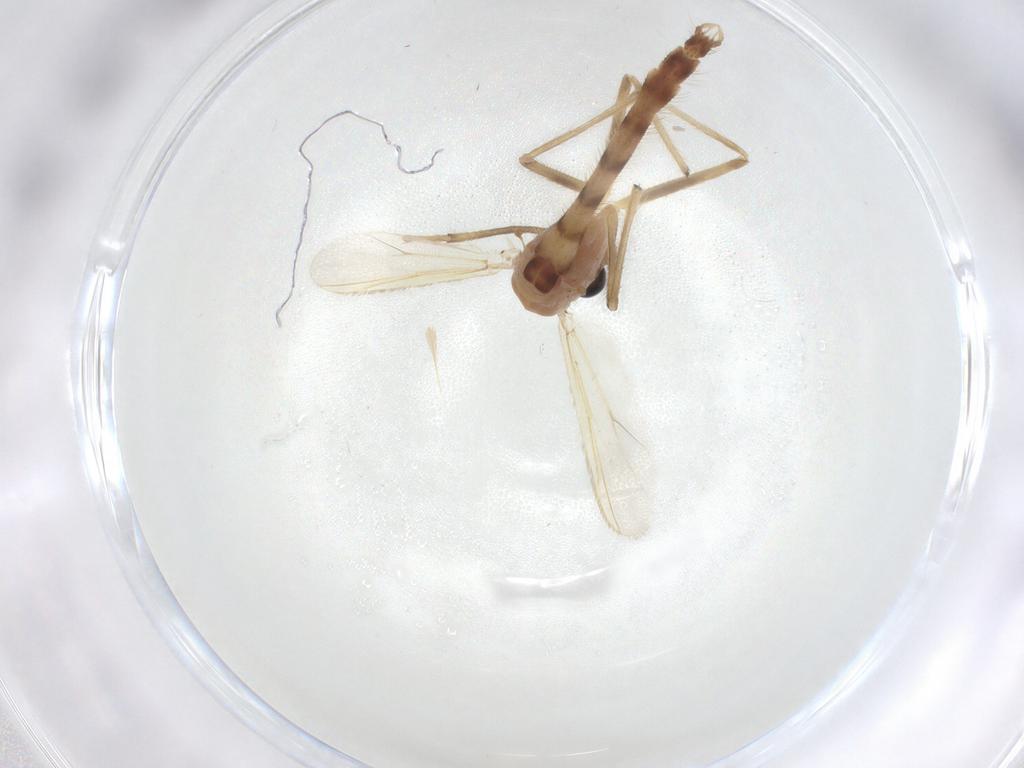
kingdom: Animalia
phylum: Arthropoda
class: Insecta
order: Diptera
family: Chironomidae
